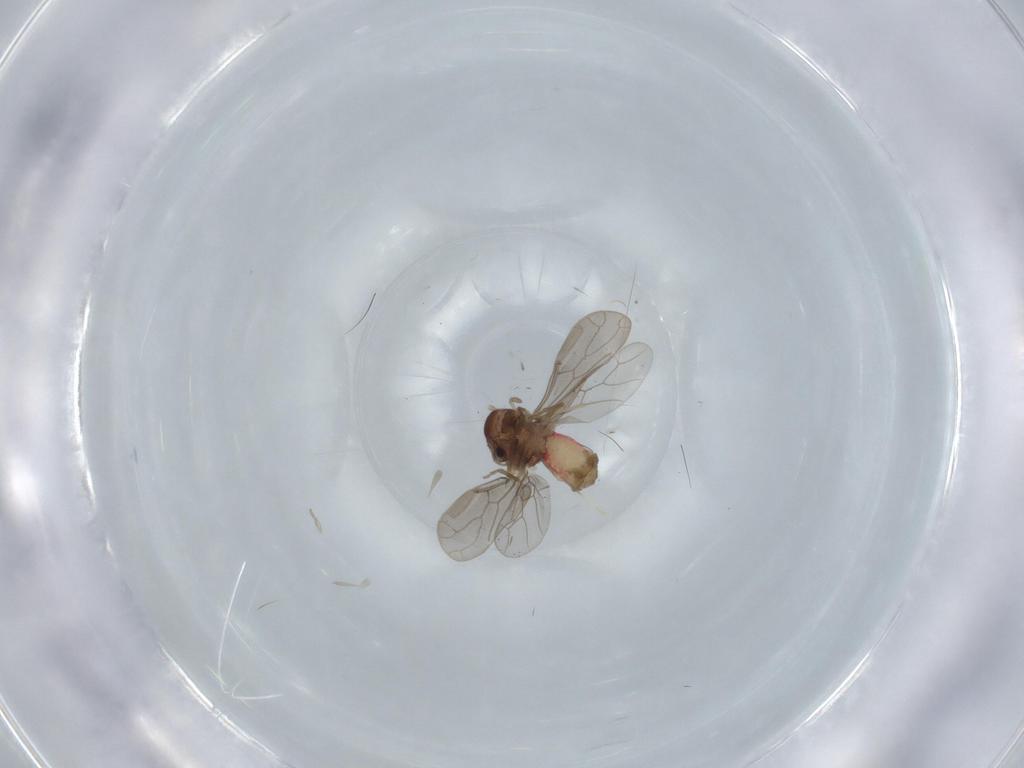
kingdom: Animalia
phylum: Arthropoda
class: Insecta
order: Psocodea
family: Asiopsocidae
